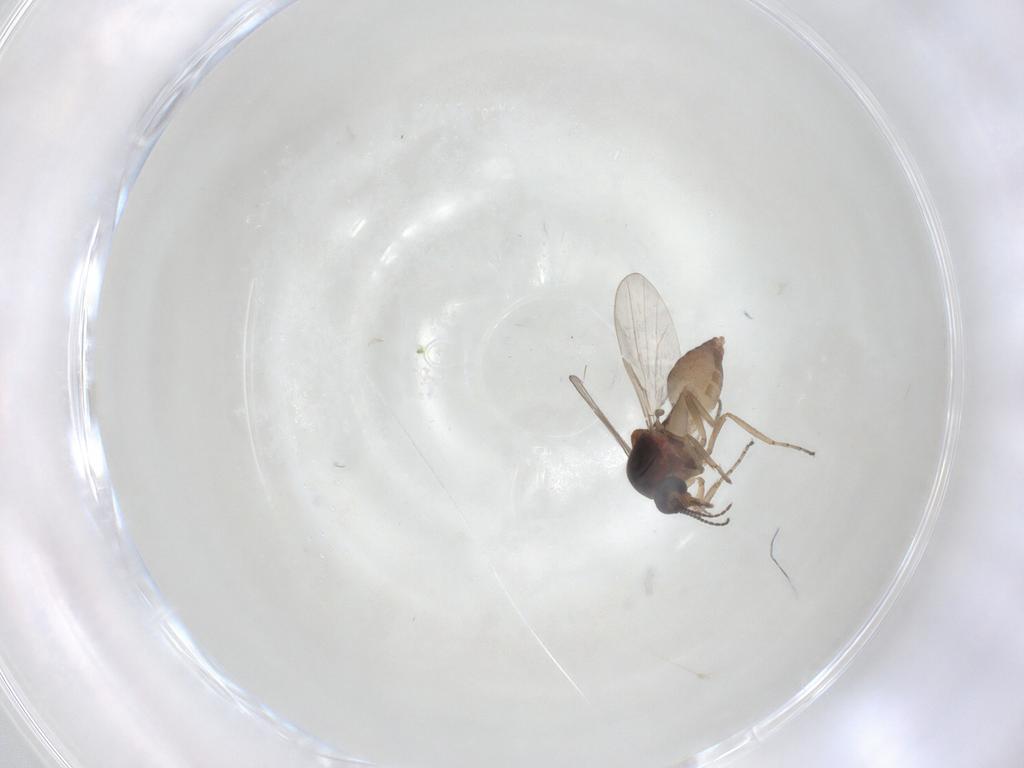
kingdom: Animalia
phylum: Arthropoda
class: Insecta
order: Diptera
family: Ceratopogonidae
